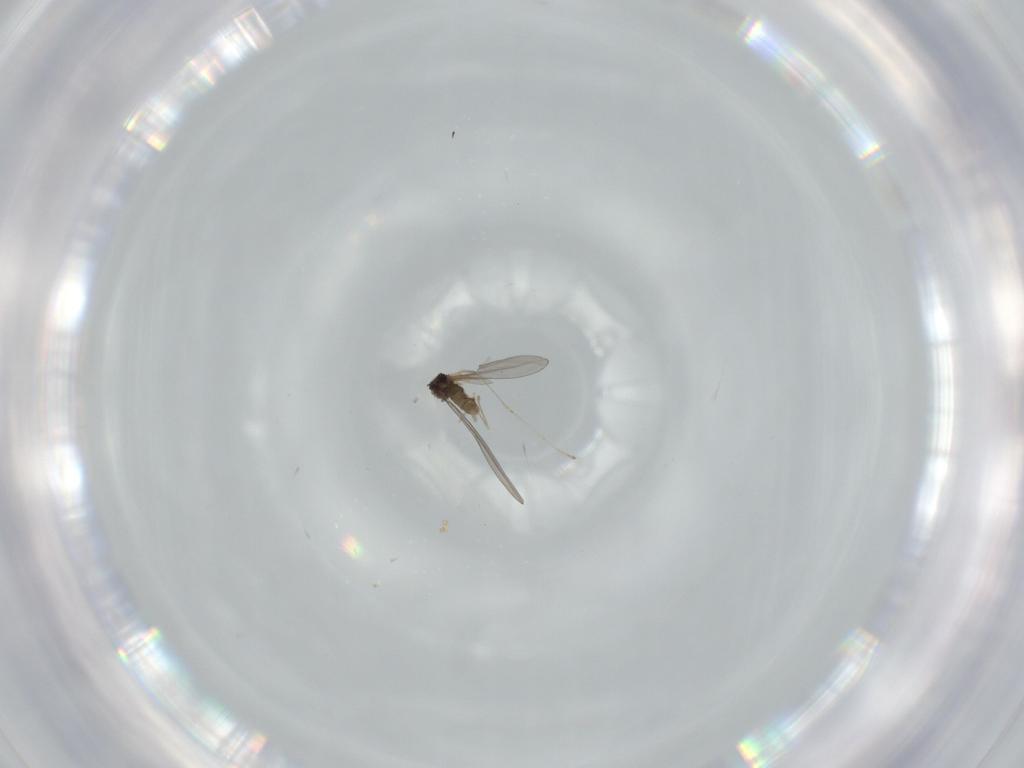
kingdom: Animalia
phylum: Arthropoda
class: Insecta
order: Diptera
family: Cecidomyiidae
